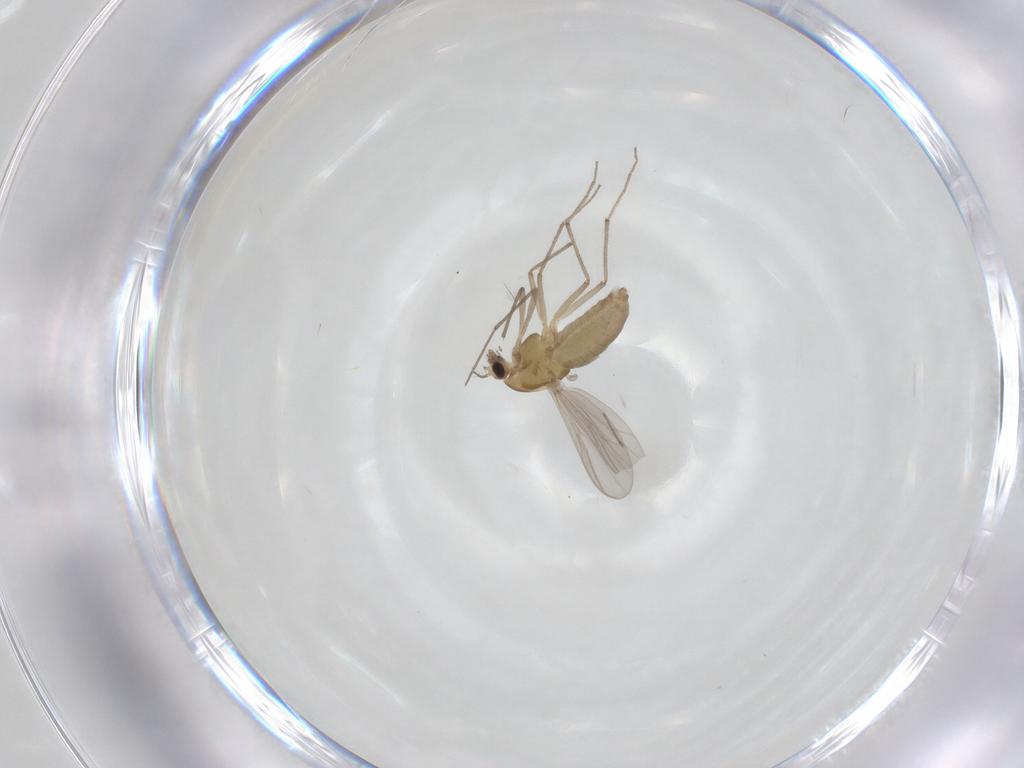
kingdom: Animalia
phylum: Arthropoda
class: Insecta
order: Diptera
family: Chironomidae
